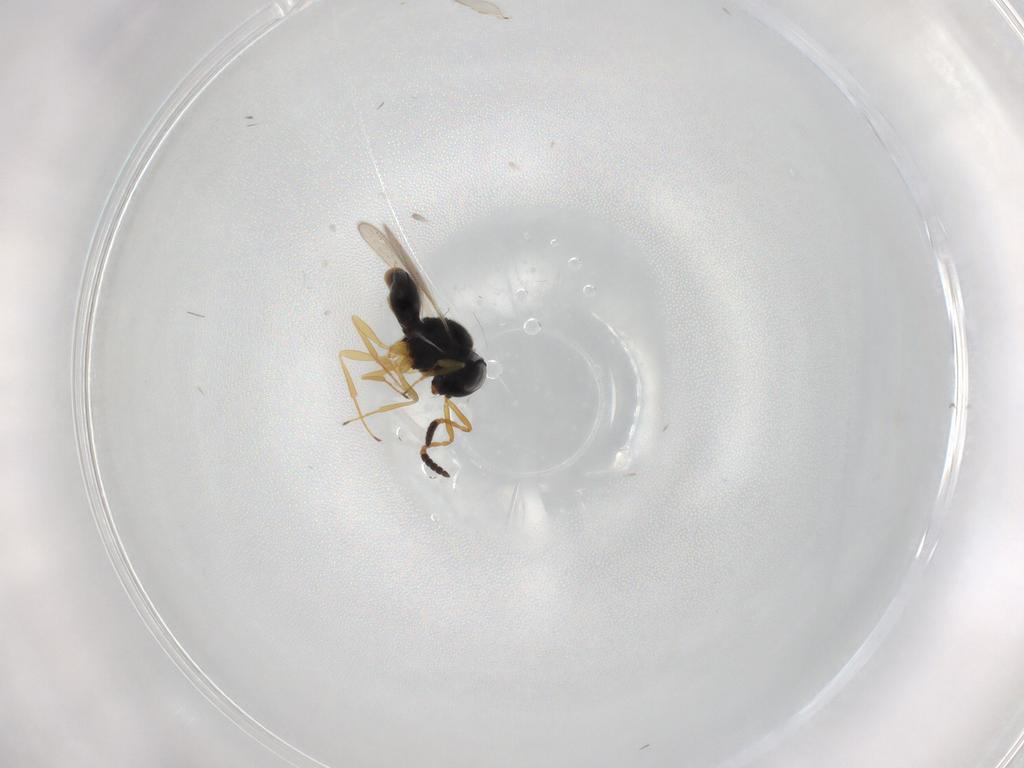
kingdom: Animalia
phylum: Arthropoda
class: Insecta
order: Hymenoptera
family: Scelionidae
